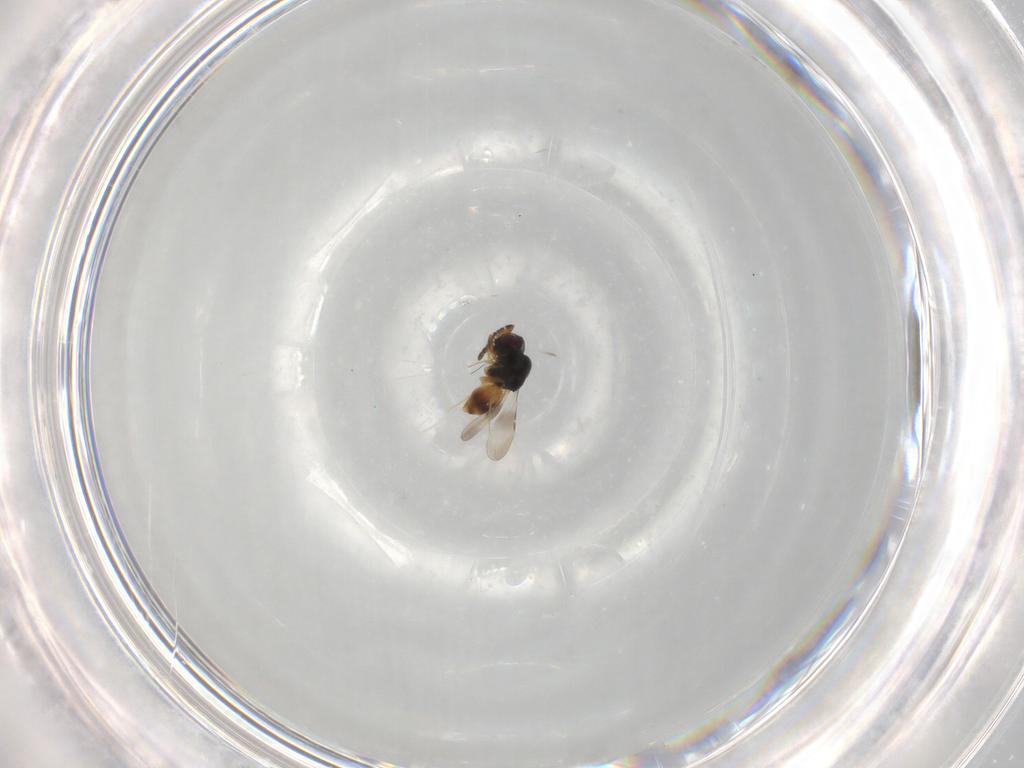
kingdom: Animalia
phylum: Arthropoda
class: Insecta
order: Hymenoptera
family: Ceraphronidae
